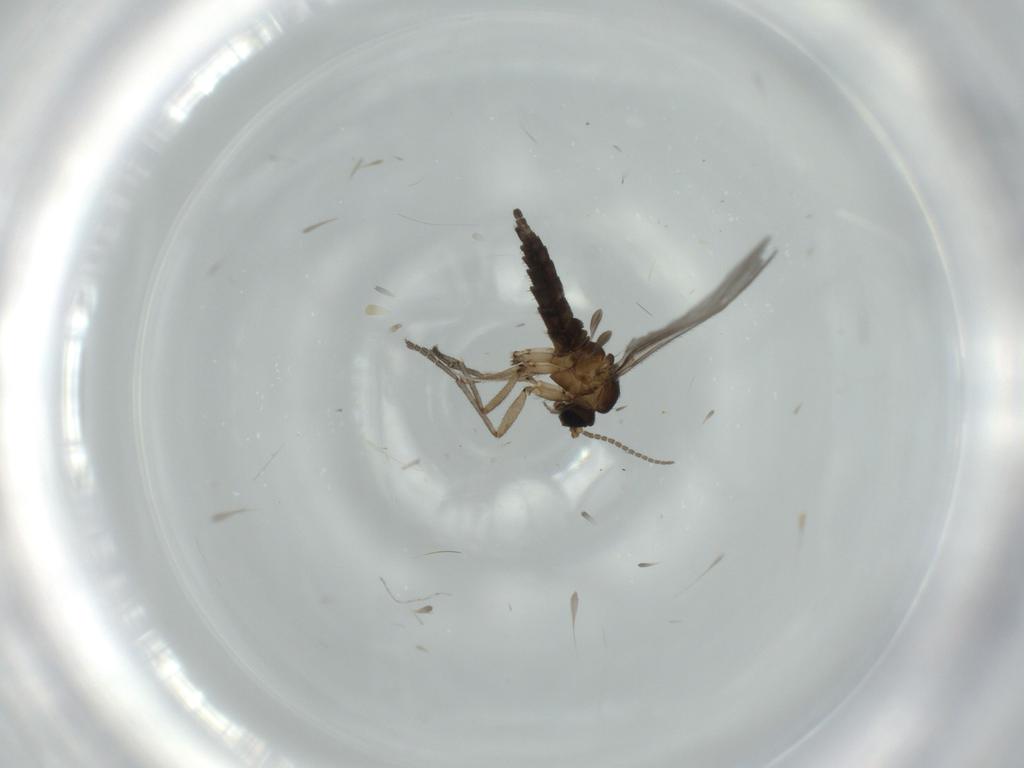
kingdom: Animalia
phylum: Arthropoda
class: Insecta
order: Diptera
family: Sciaridae
